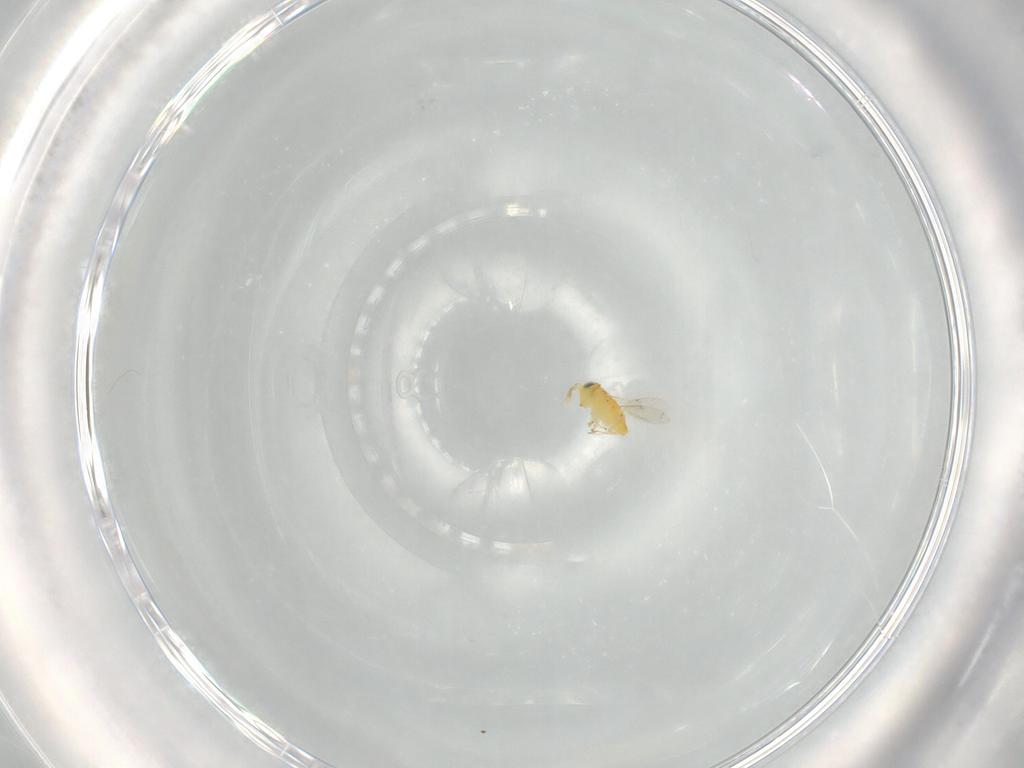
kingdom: Animalia
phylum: Arthropoda
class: Insecta
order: Hymenoptera
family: Encyrtidae
